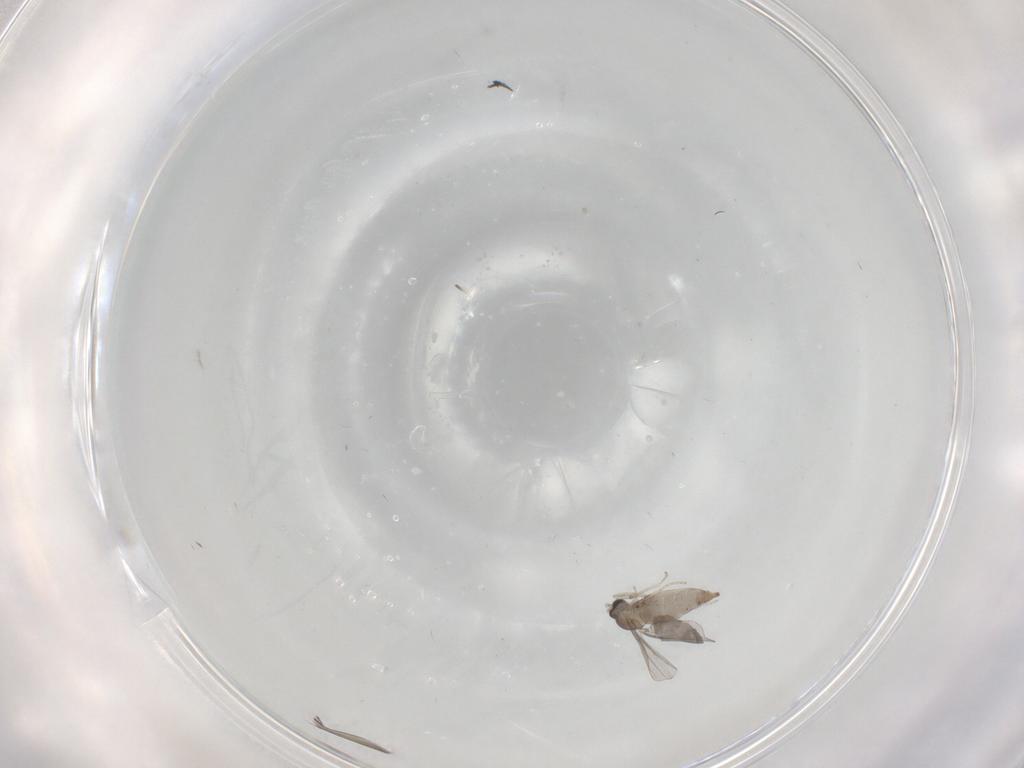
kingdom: Animalia
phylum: Arthropoda
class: Insecta
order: Diptera
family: Cecidomyiidae
